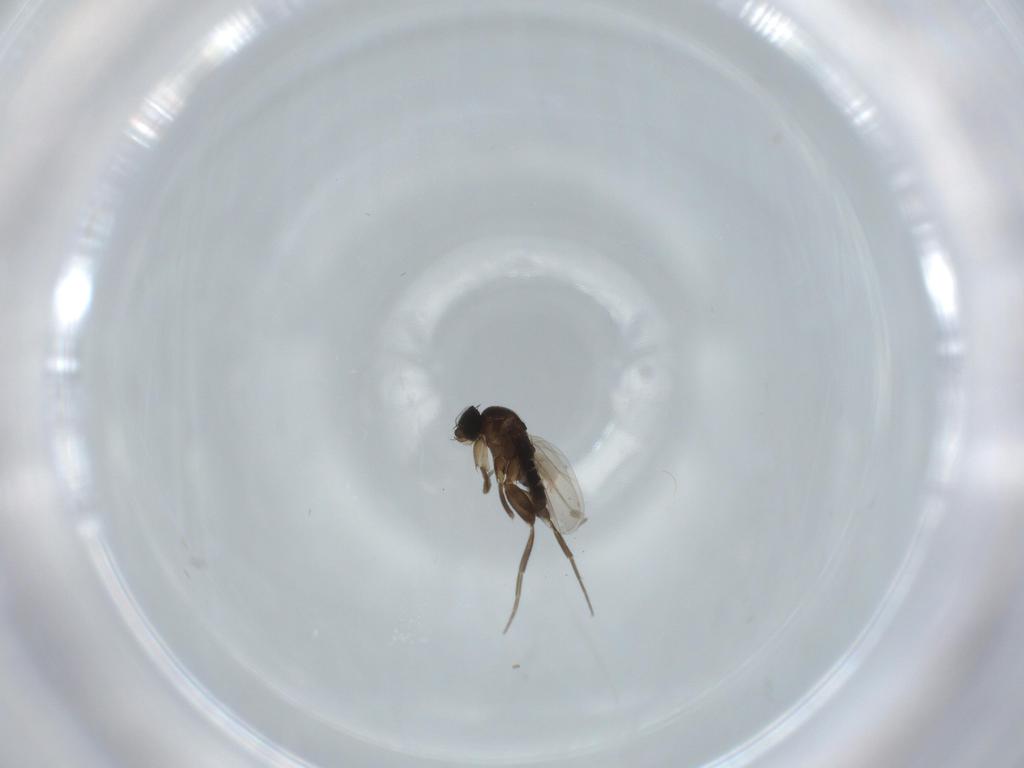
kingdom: Animalia
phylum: Arthropoda
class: Insecta
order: Diptera
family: Phoridae
